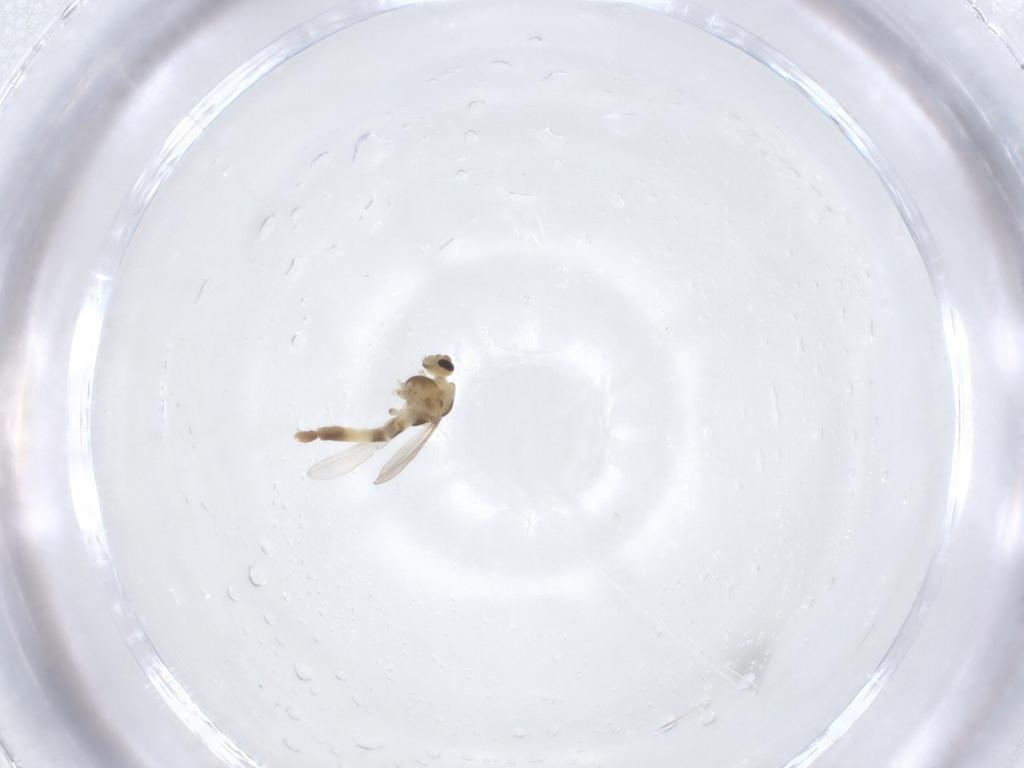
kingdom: Animalia
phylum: Arthropoda
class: Insecta
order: Diptera
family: Chironomidae
